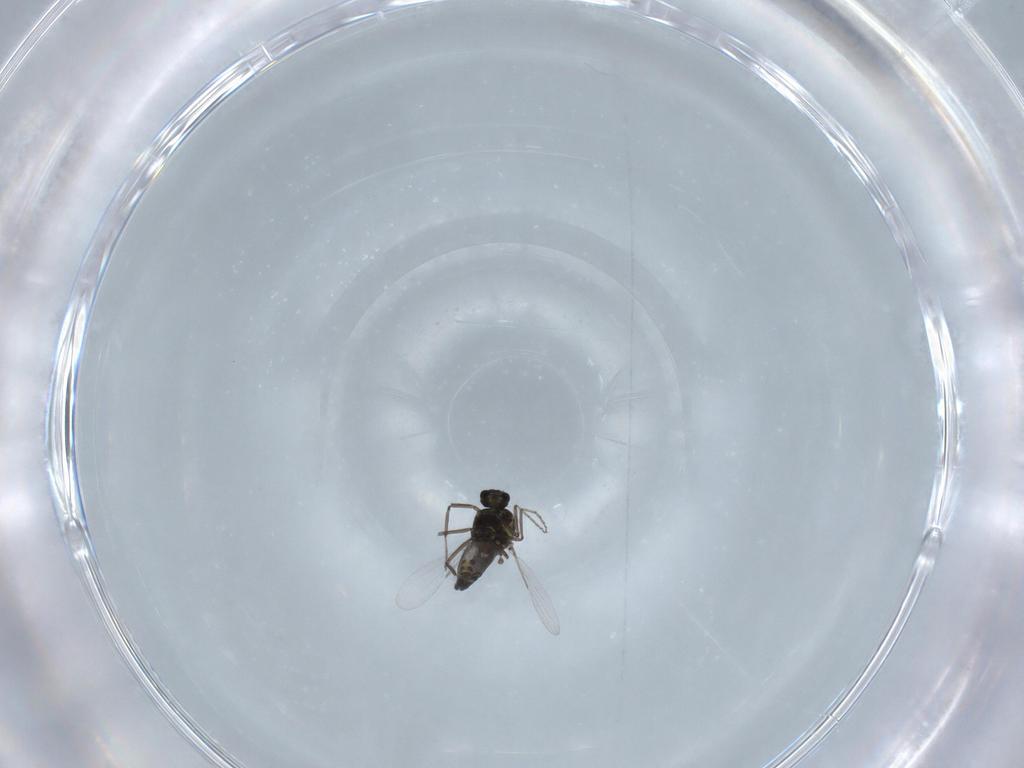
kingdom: Animalia
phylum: Arthropoda
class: Insecta
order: Diptera
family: Ceratopogonidae
